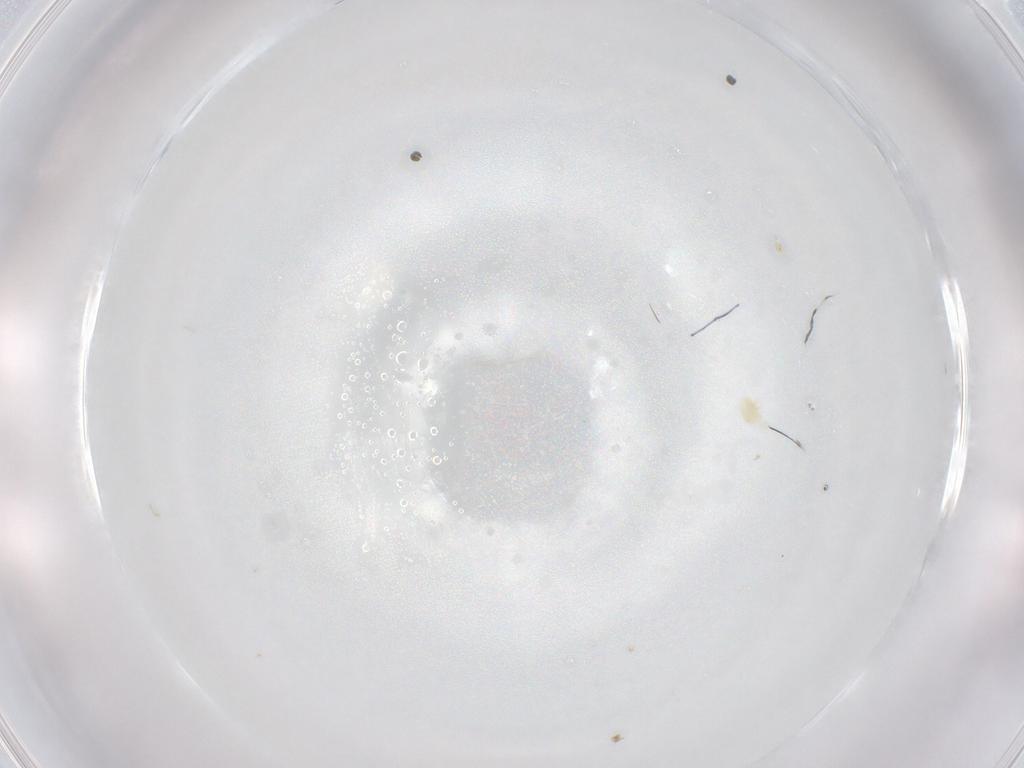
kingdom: Animalia
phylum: Arthropoda
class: Arachnida
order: Trombidiformes
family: Eupodidae
